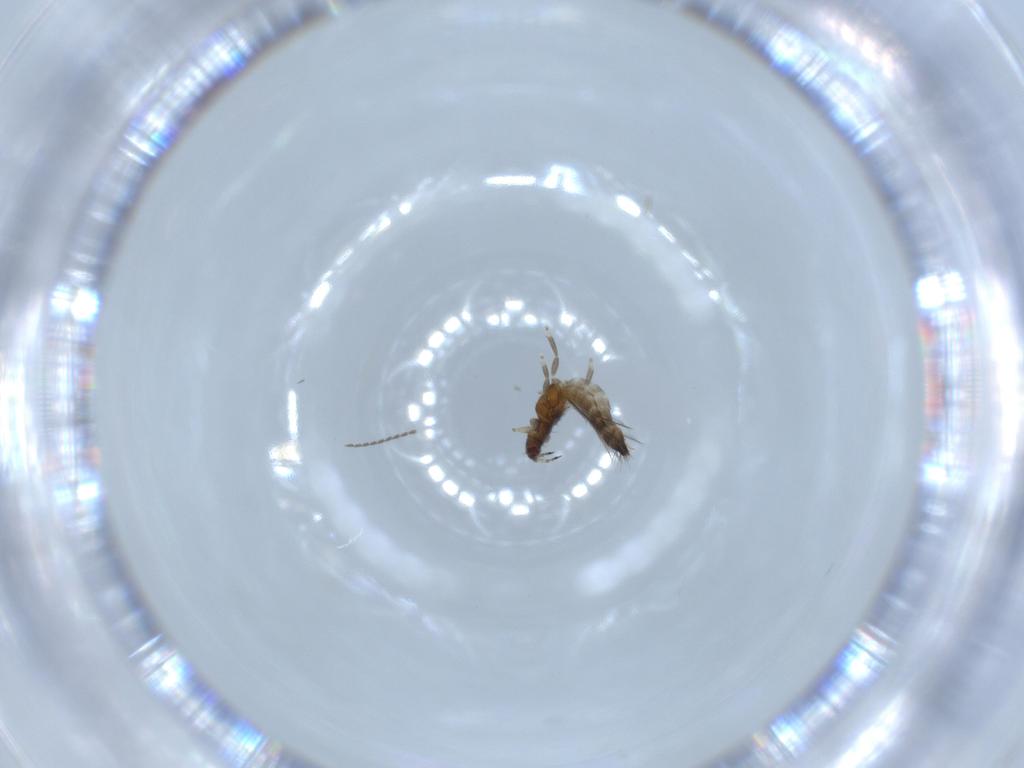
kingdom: Animalia
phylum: Arthropoda
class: Insecta
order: Thysanoptera
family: Thripidae
